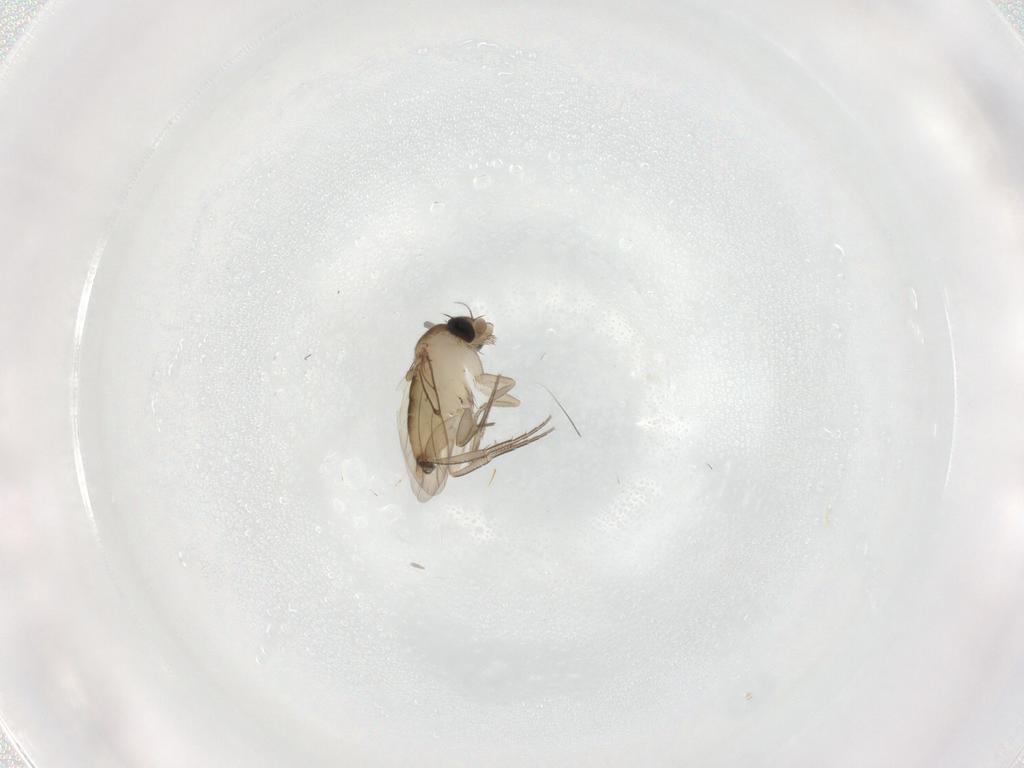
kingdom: Animalia
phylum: Arthropoda
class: Insecta
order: Diptera
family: Phoridae
